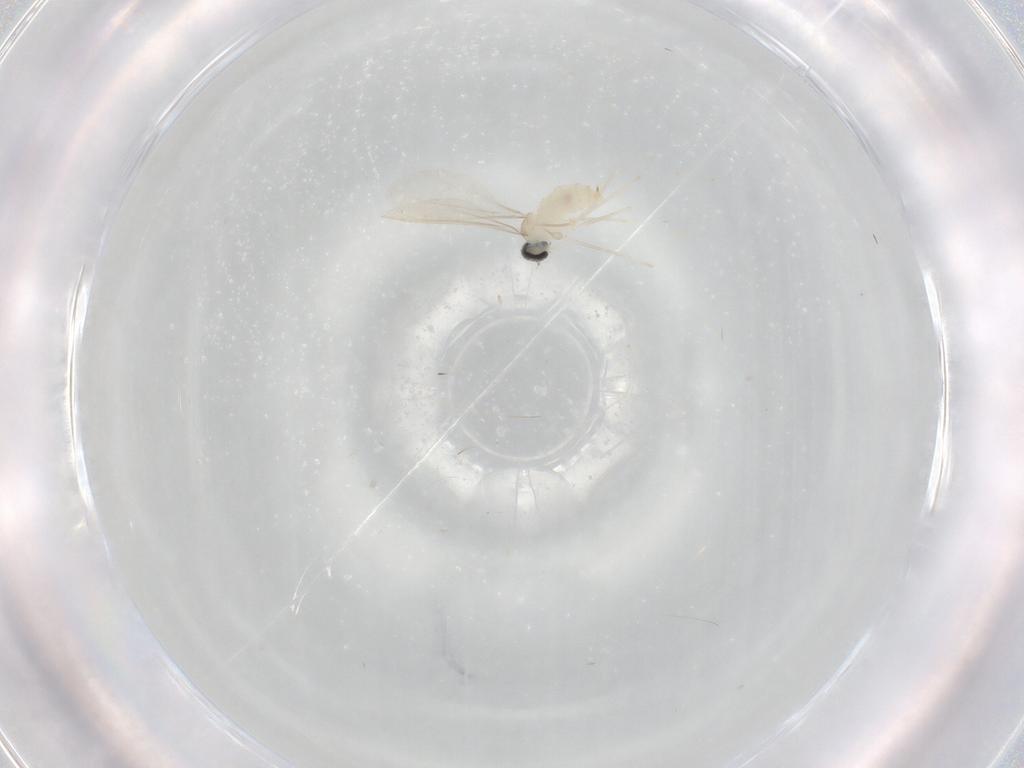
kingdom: Animalia
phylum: Arthropoda
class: Insecta
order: Diptera
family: Cecidomyiidae
